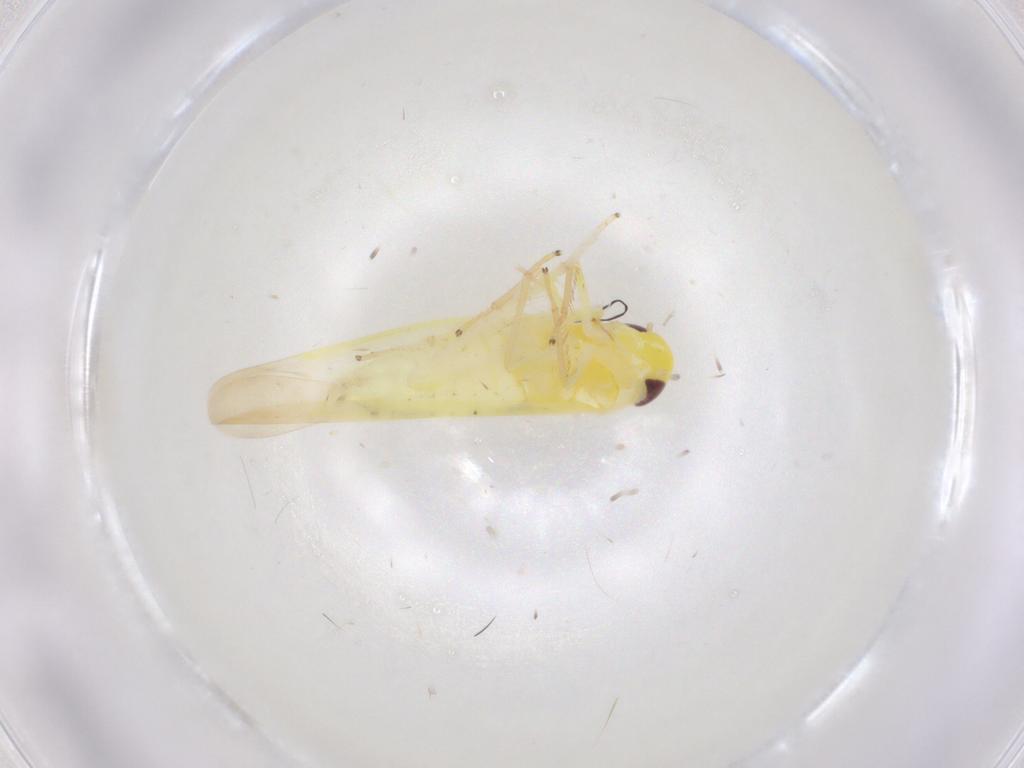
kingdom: Animalia
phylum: Arthropoda
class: Insecta
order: Hemiptera
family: Cicadellidae
